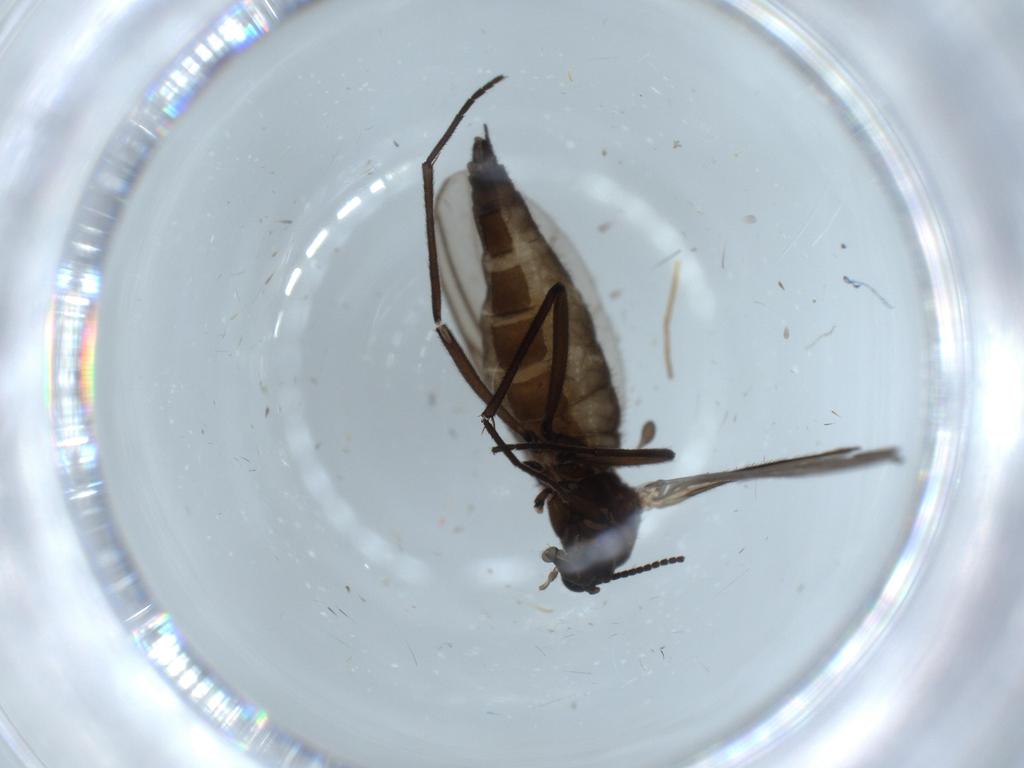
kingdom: Animalia
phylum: Arthropoda
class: Insecta
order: Diptera
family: Sciaridae
